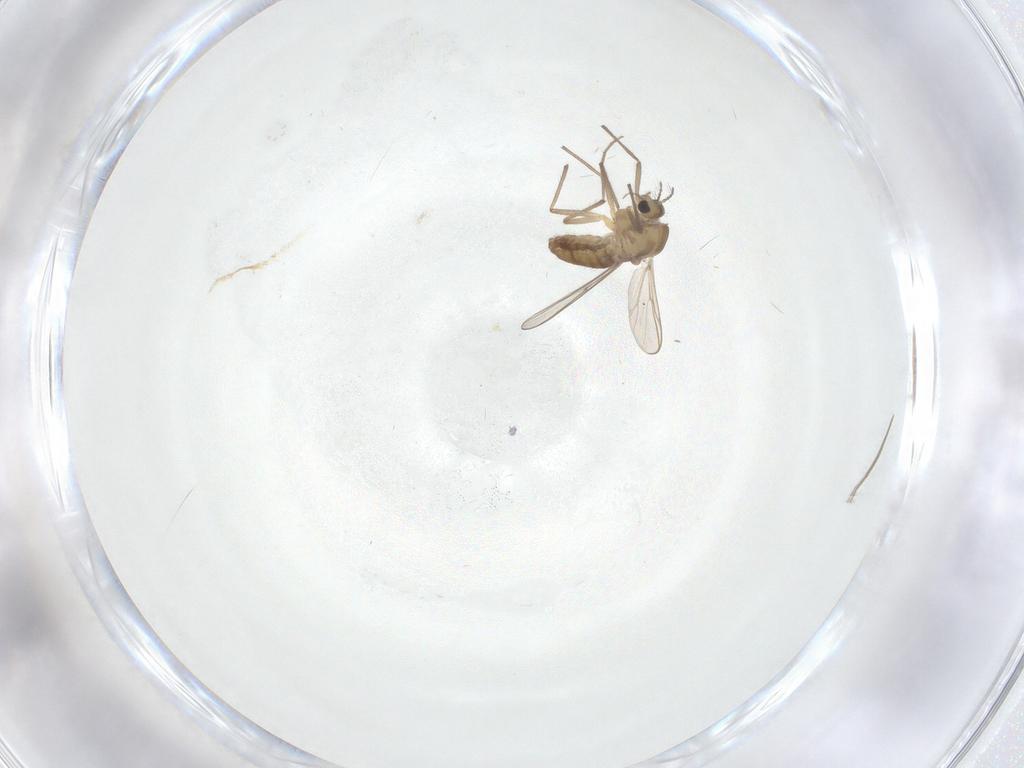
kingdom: Animalia
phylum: Arthropoda
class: Insecta
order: Diptera
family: Chironomidae
